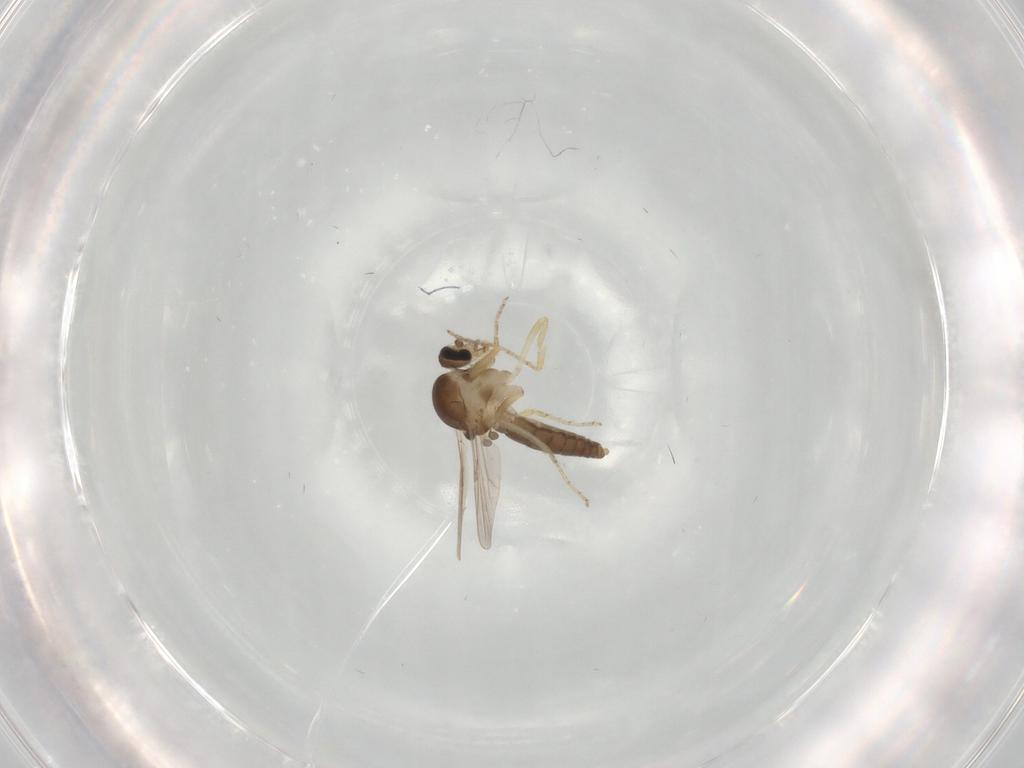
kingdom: Animalia
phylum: Arthropoda
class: Insecta
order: Diptera
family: Ceratopogonidae
